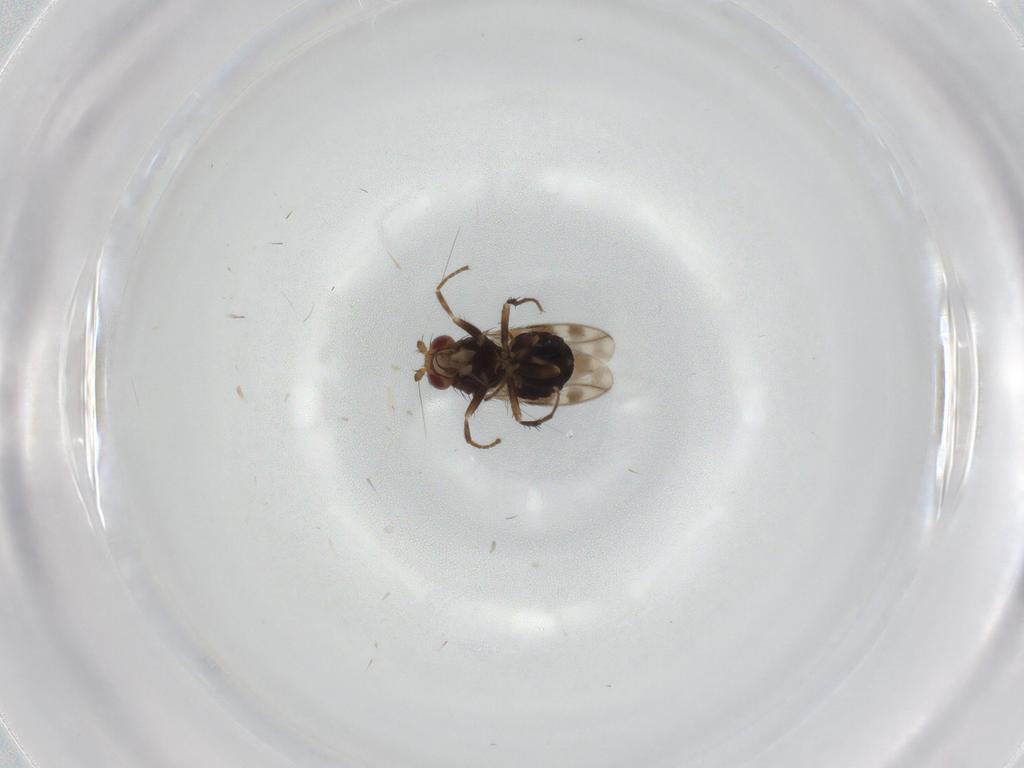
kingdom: Animalia
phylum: Arthropoda
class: Insecta
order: Diptera
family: Sphaeroceridae
